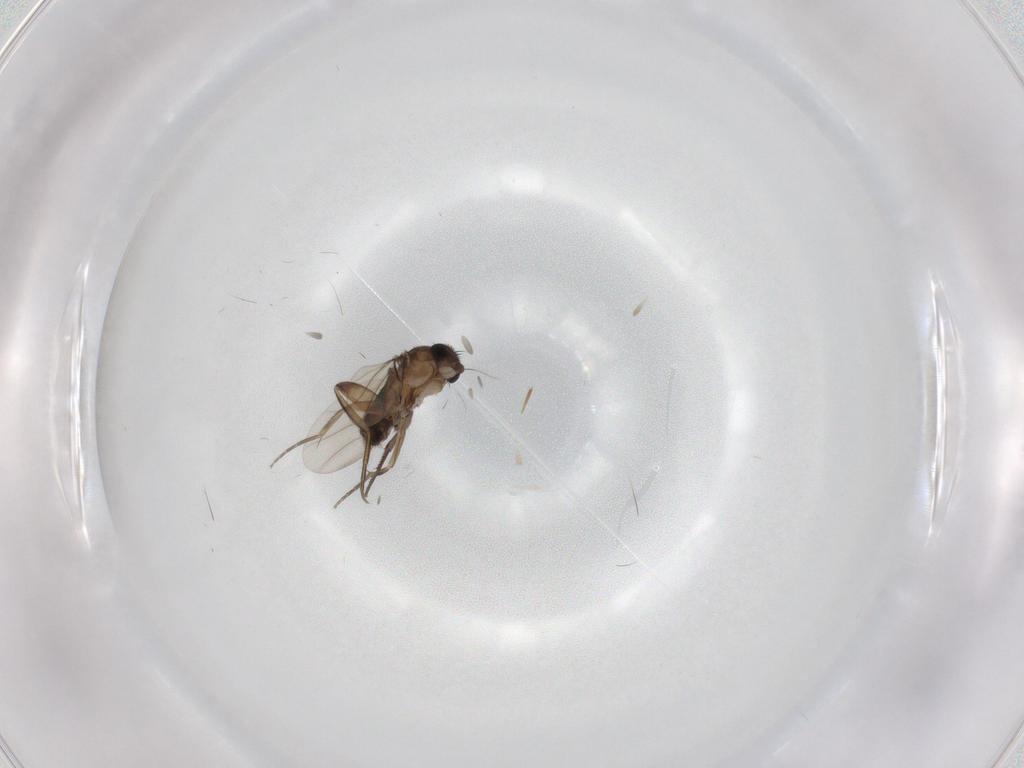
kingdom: Animalia
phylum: Arthropoda
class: Insecta
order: Diptera
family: Phoridae
